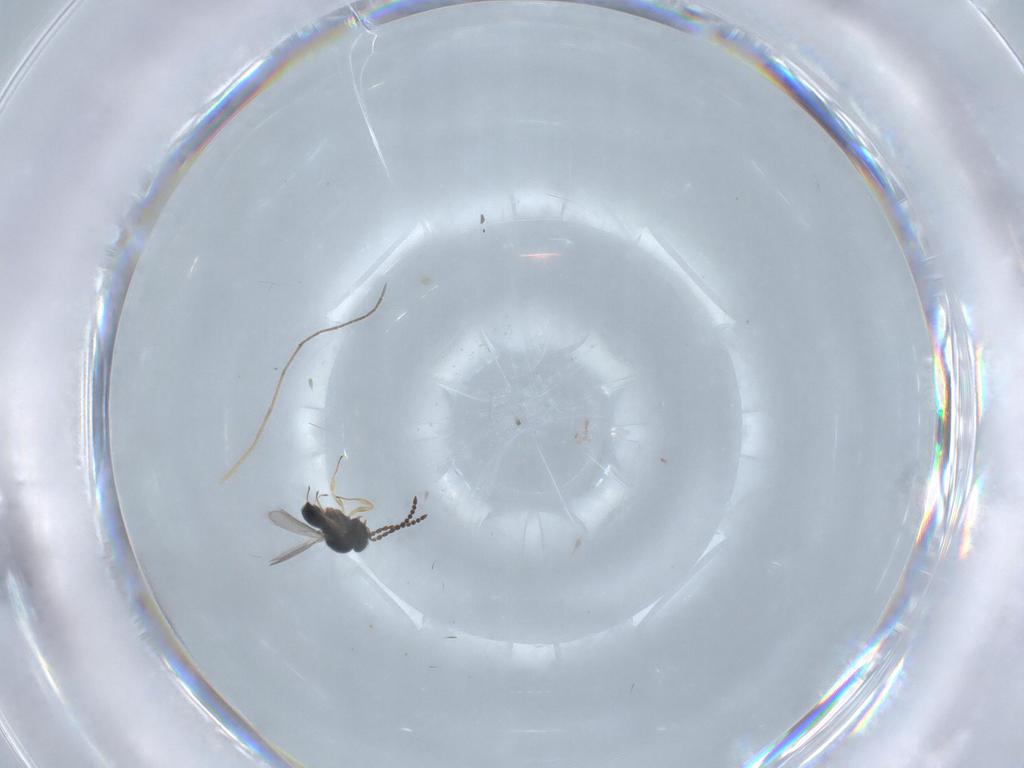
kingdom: Animalia
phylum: Arthropoda
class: Insecta
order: Hymenoptera
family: Scelionidae
